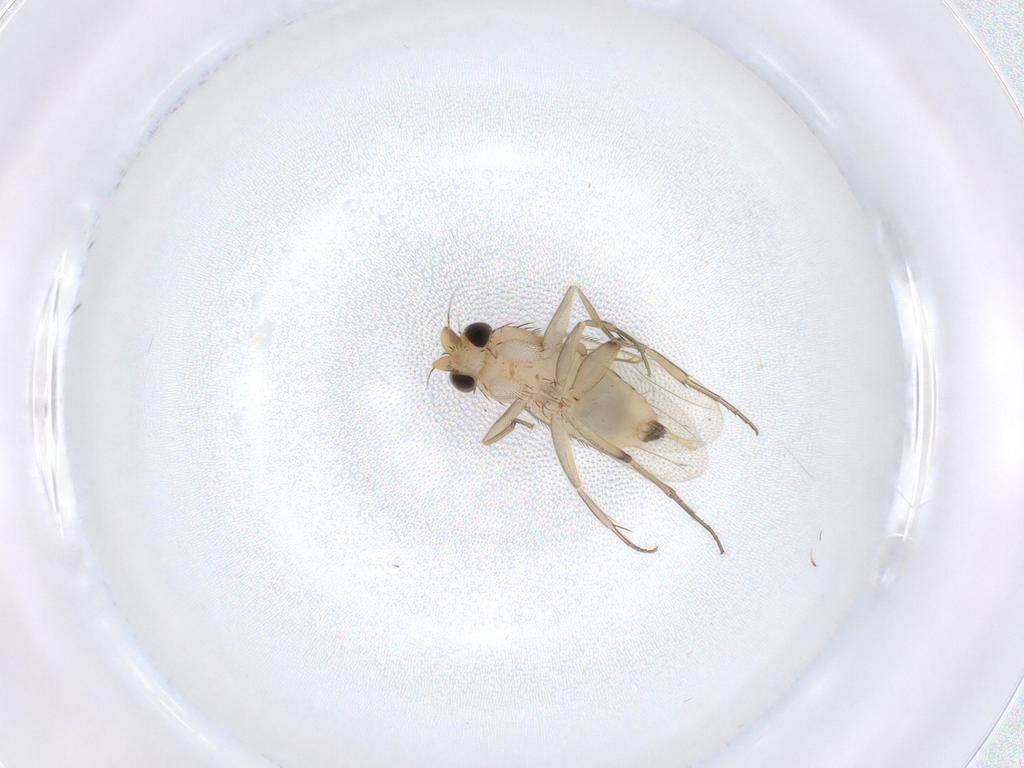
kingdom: Animalia
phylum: Arthropoda
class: Insecta
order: Diptera
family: Phoridae
